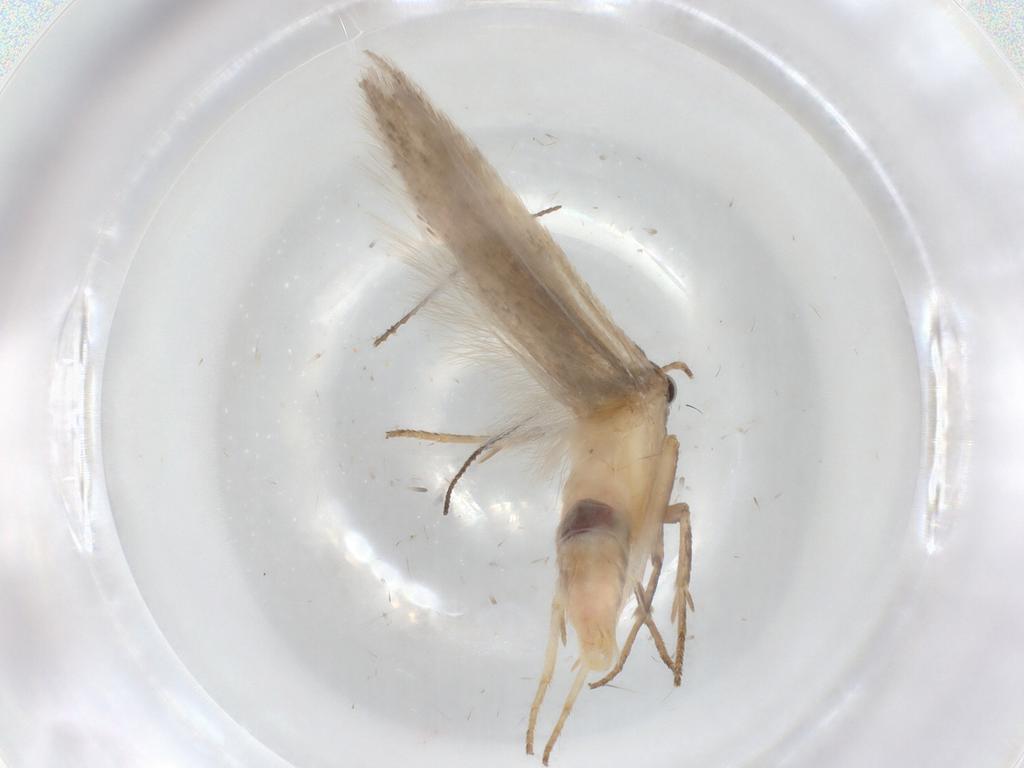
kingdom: Animalia
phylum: Arthropoda
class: Insecta
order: Lepidoptera
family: Gelechiidae
